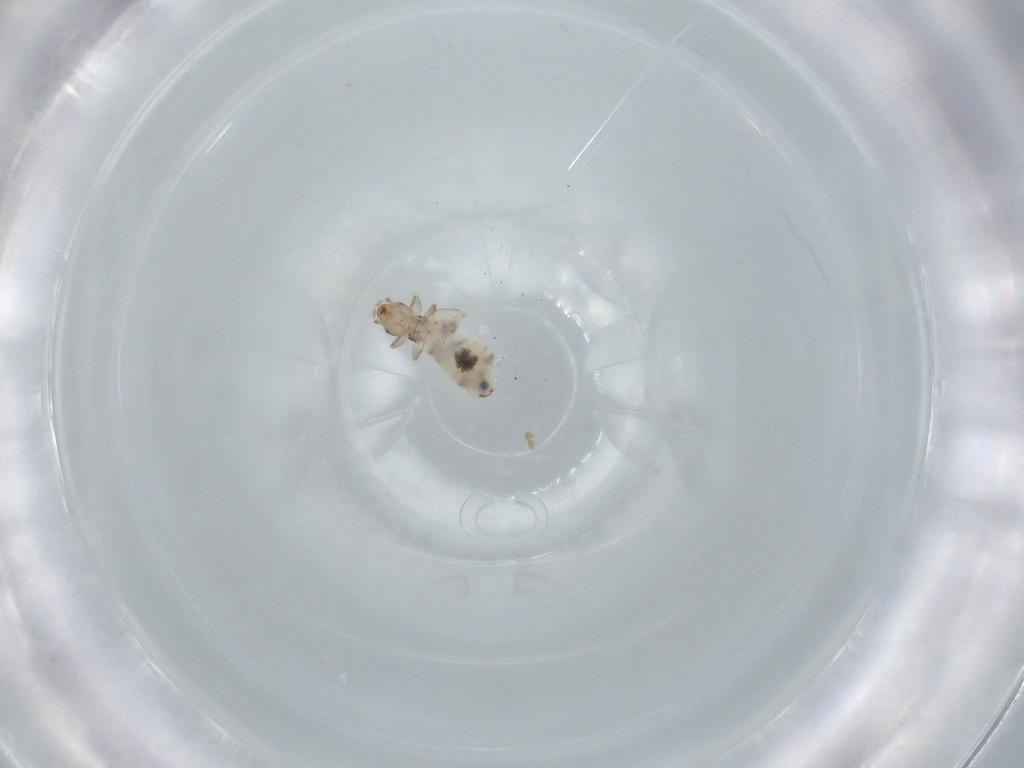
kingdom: Animalia
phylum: Arthropoda
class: Insecta
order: Psocodea
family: Liposcelididae
